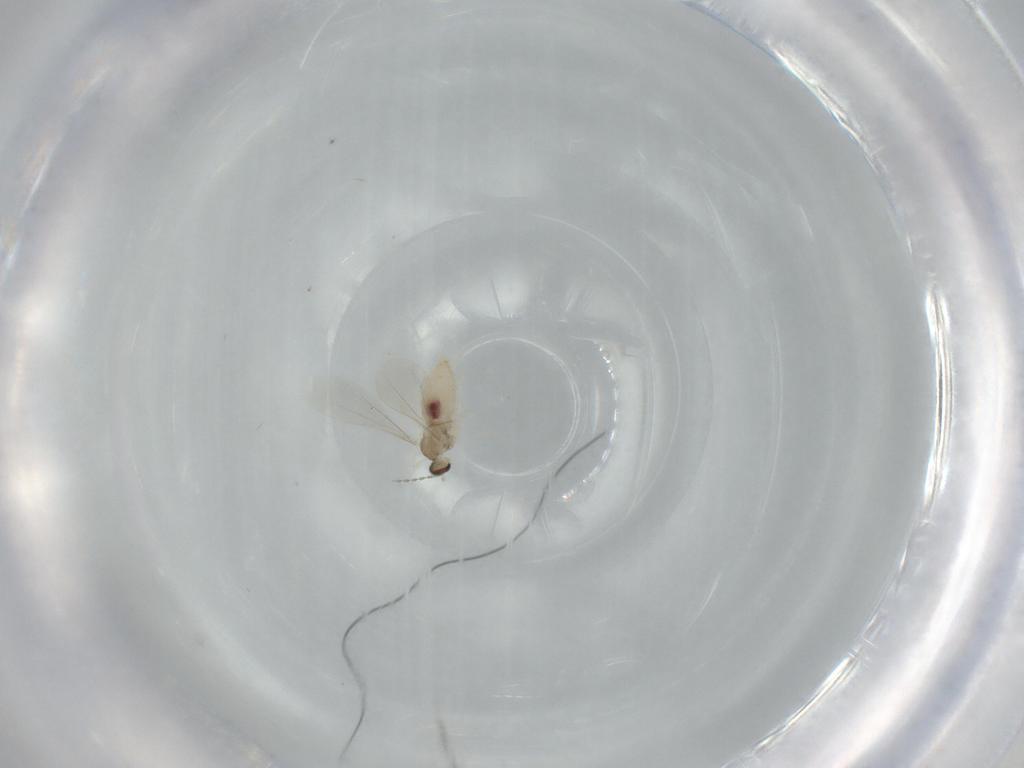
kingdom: Animalia
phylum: Arthropoda
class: Insecta
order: Diptera
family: Cecidomyiidae
